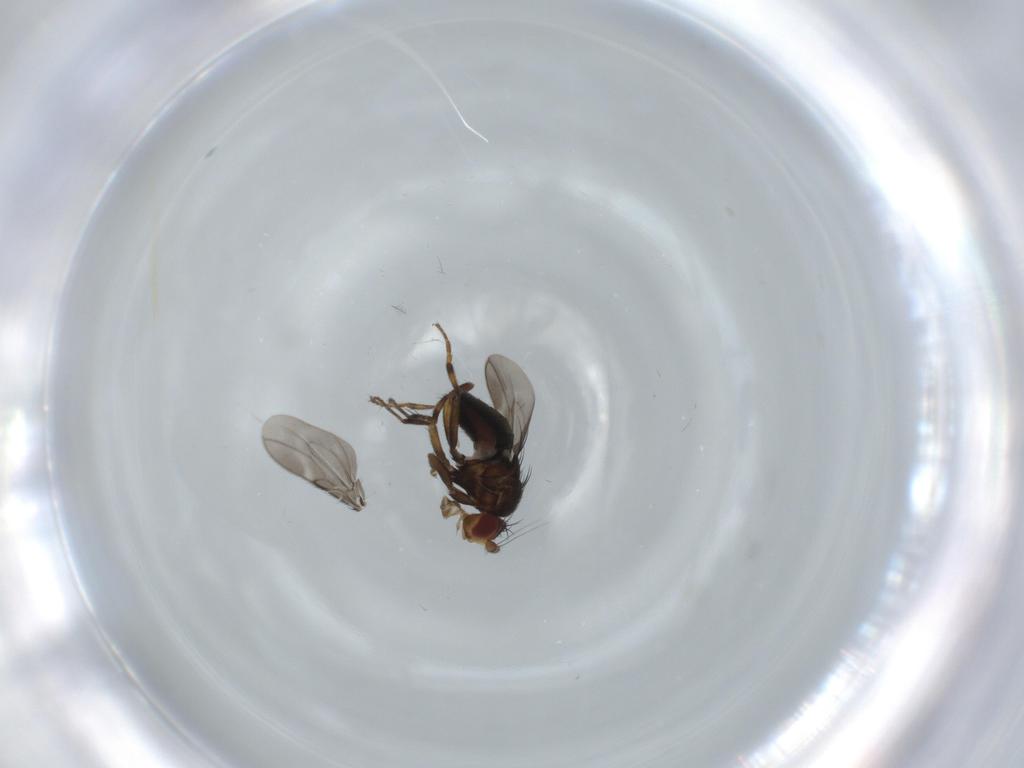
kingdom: Animalia
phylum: Arthropoda
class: Insecta
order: Diptera
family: Sphaeroceridae
